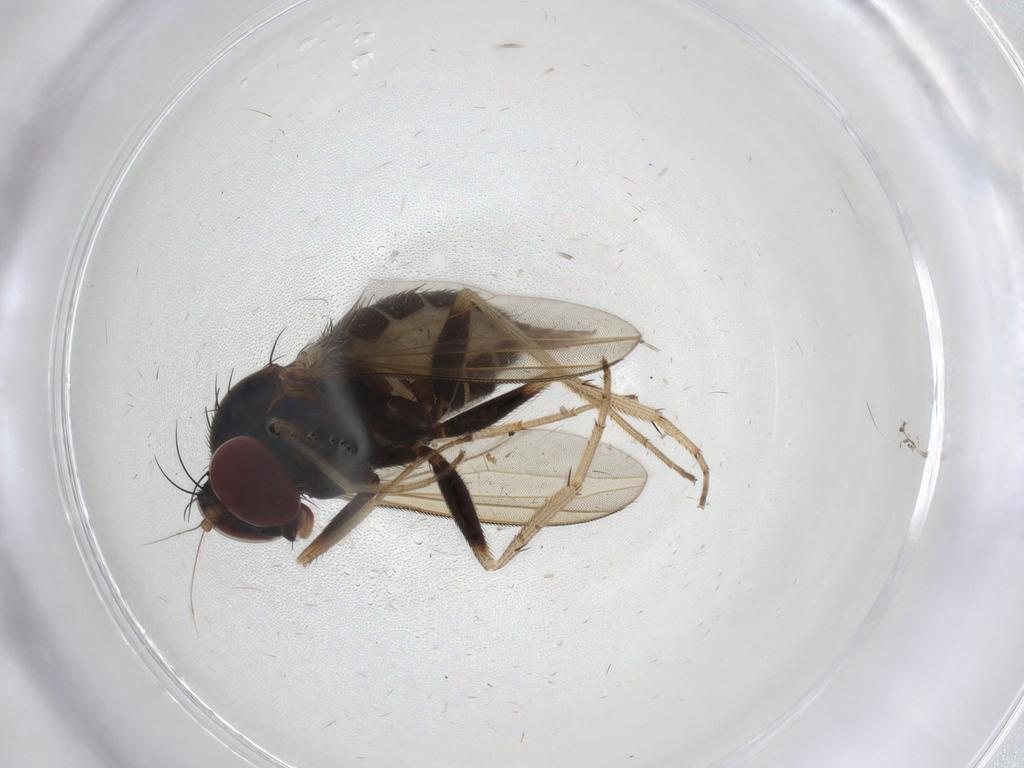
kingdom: Animalia
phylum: Arthropoda
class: Insecta
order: Diptera
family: Dolichopodidae
